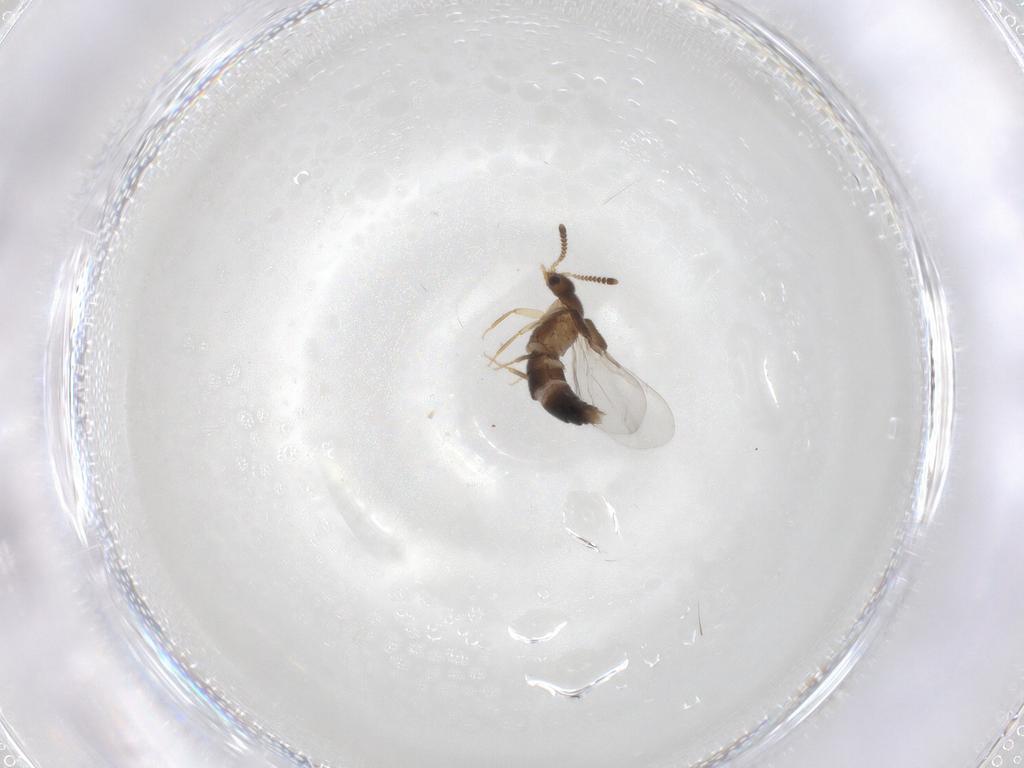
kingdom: Animalia
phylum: Arthropoda
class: Insecta
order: Coleoptera
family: Staphylinidae
